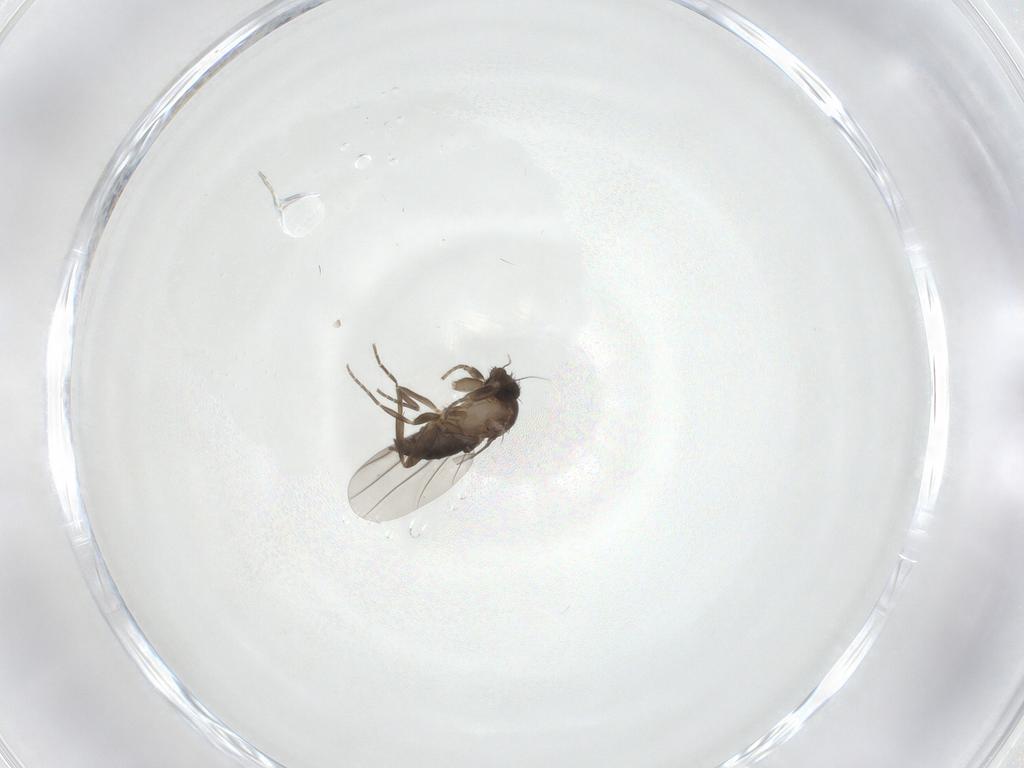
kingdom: Animalia
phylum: Arthropoda
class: Insecta
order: Diptera
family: Phoridae
